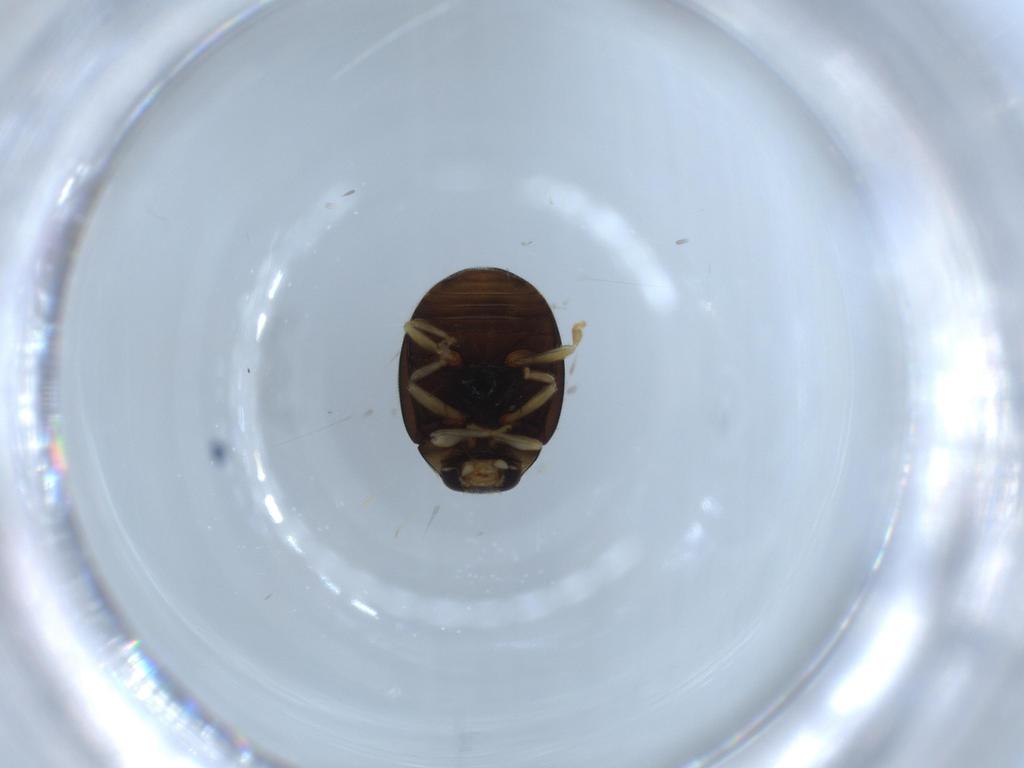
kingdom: Animalia
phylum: Arthropoda
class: Insecta
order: Coleoptera
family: Coccinellidae
